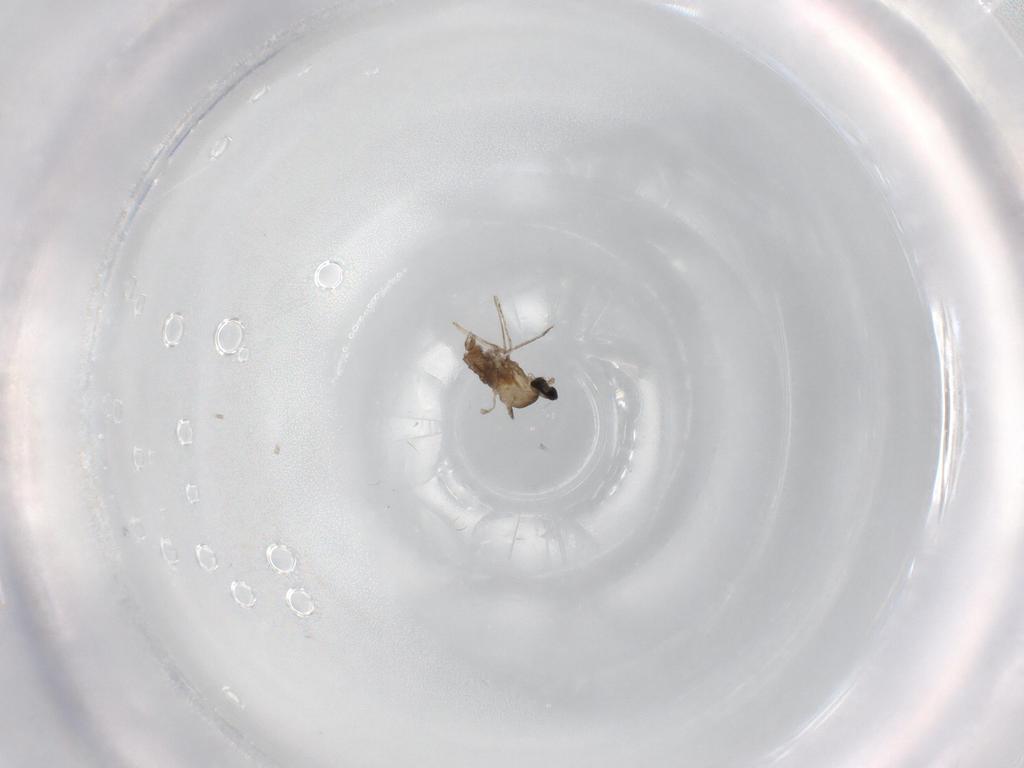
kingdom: Animalia
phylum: Arthropoda
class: Insecta
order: Diptera
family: Cecidomyiidae
